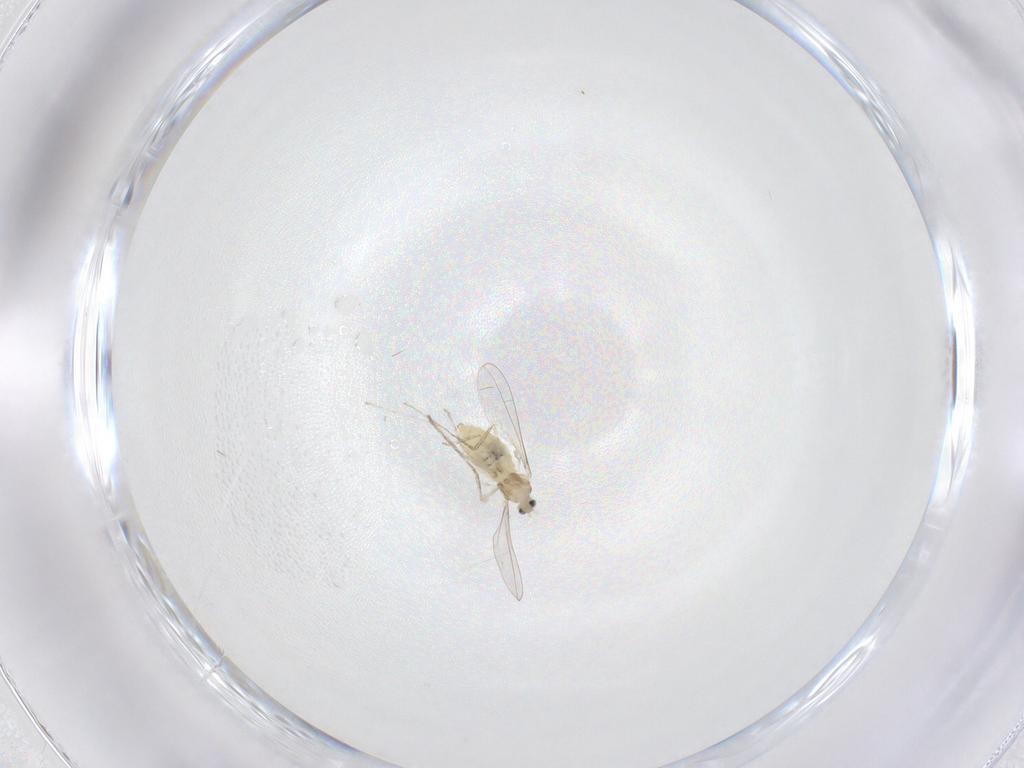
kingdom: Animalia
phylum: Arthropoda
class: Insecta
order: Diptera
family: Cecidomyiidae
